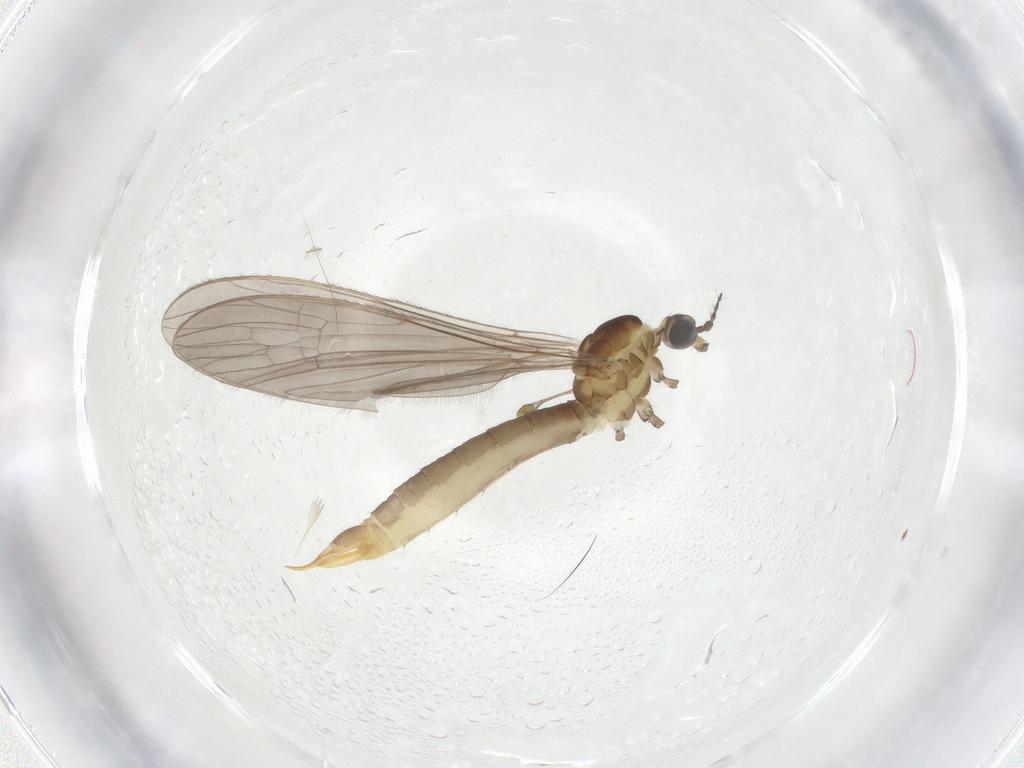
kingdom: Animalia
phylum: Arthropoda
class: Insecta
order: Diptera
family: Limoniidae
